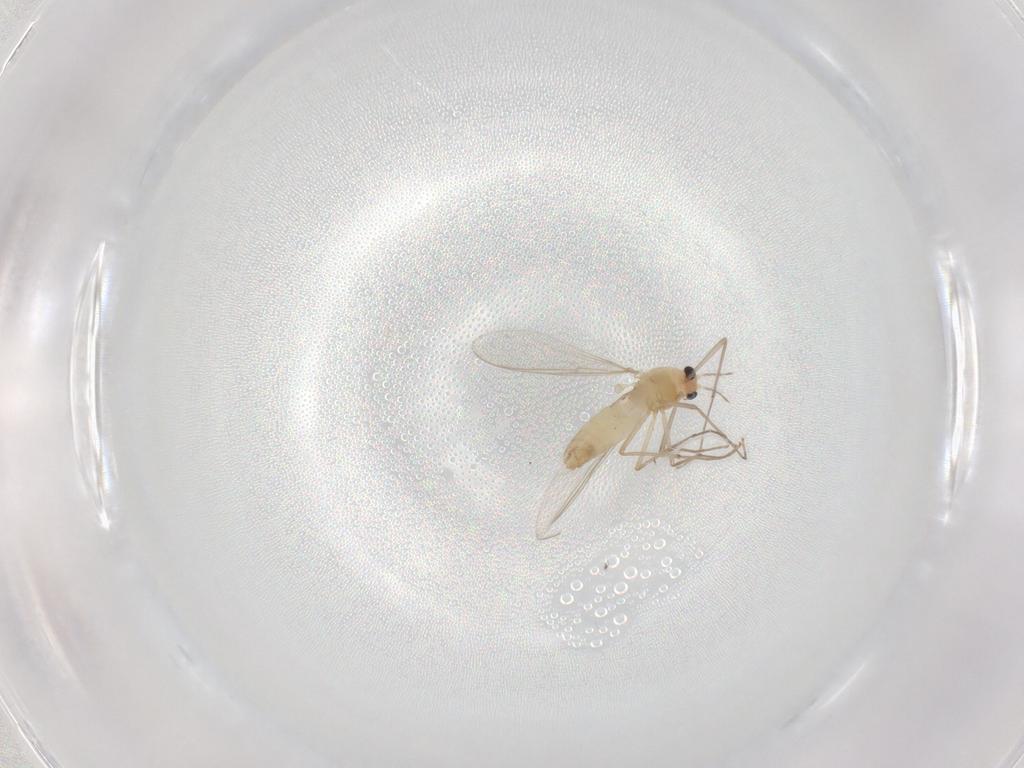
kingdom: Animalia
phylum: Arthropoda
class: Insecta
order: Diptera
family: Chironomidae
